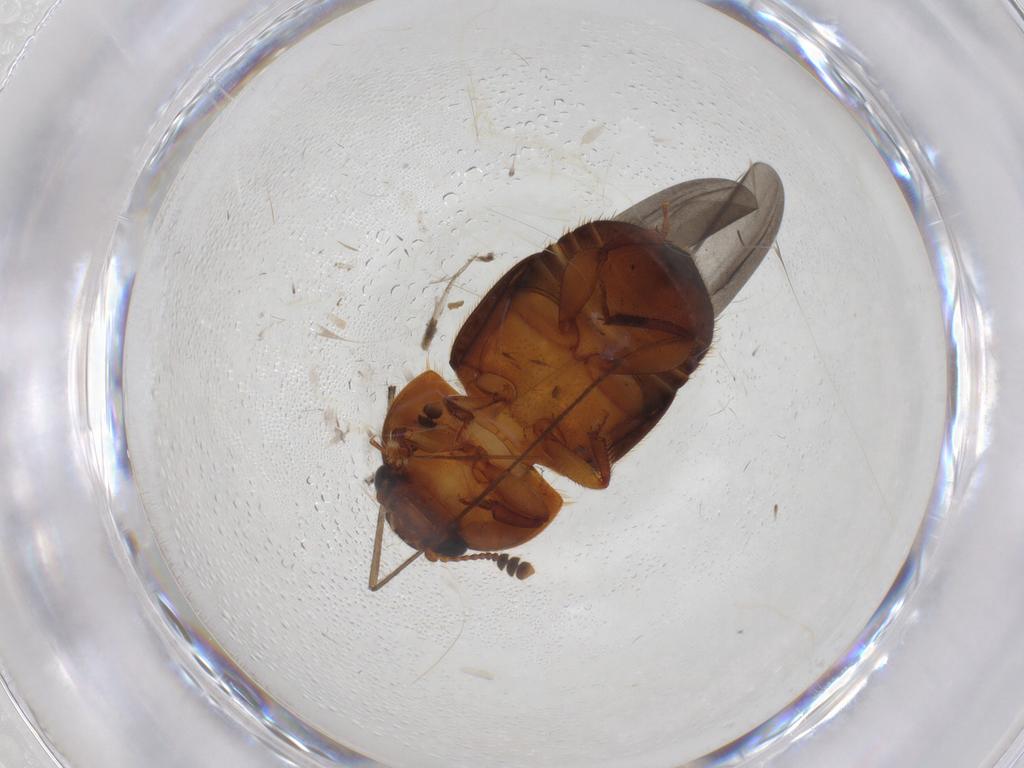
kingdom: Animalia
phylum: Arthropoda
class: Insecta
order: Coleoptera
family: Nitidulidae
